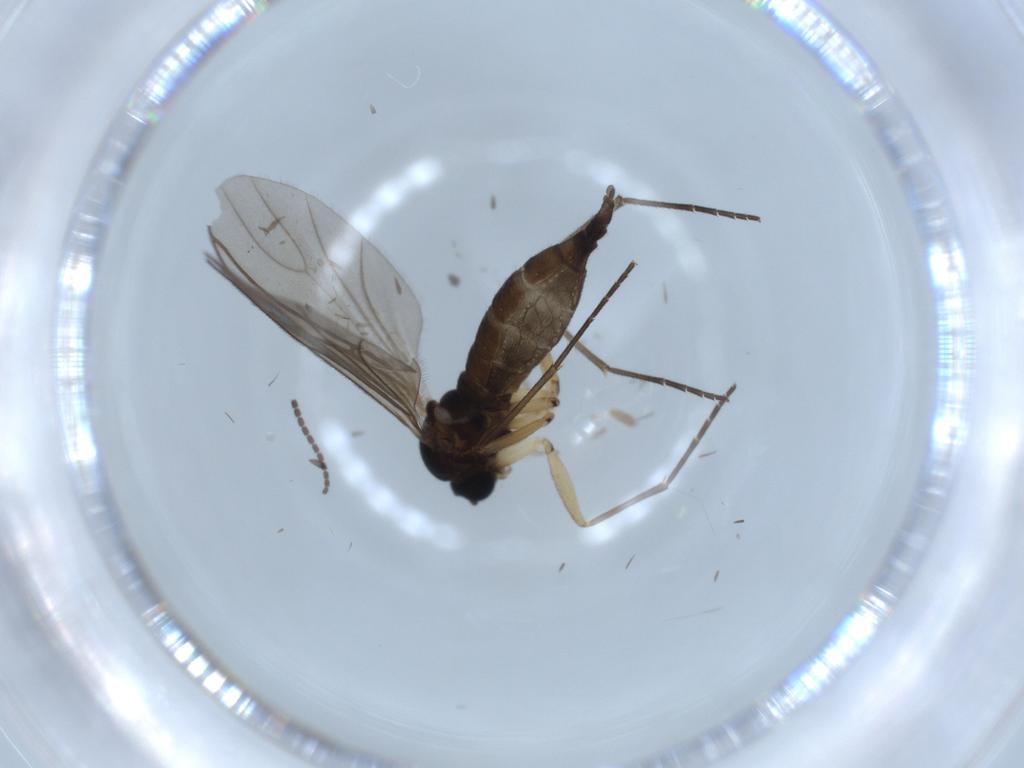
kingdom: Animalia
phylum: Arthropoda
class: Insecta
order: Diptera
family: Sciaridae
